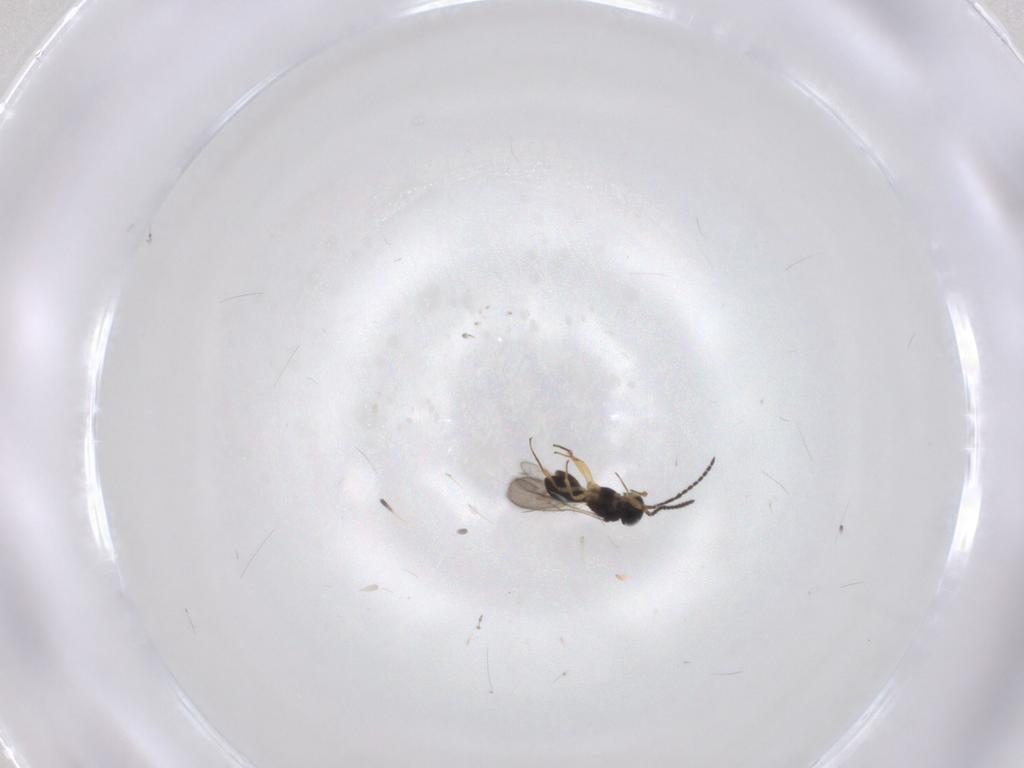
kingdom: Animalia
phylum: Arthropoda
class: Insecta
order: Hymenoptera
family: Scelionidae
